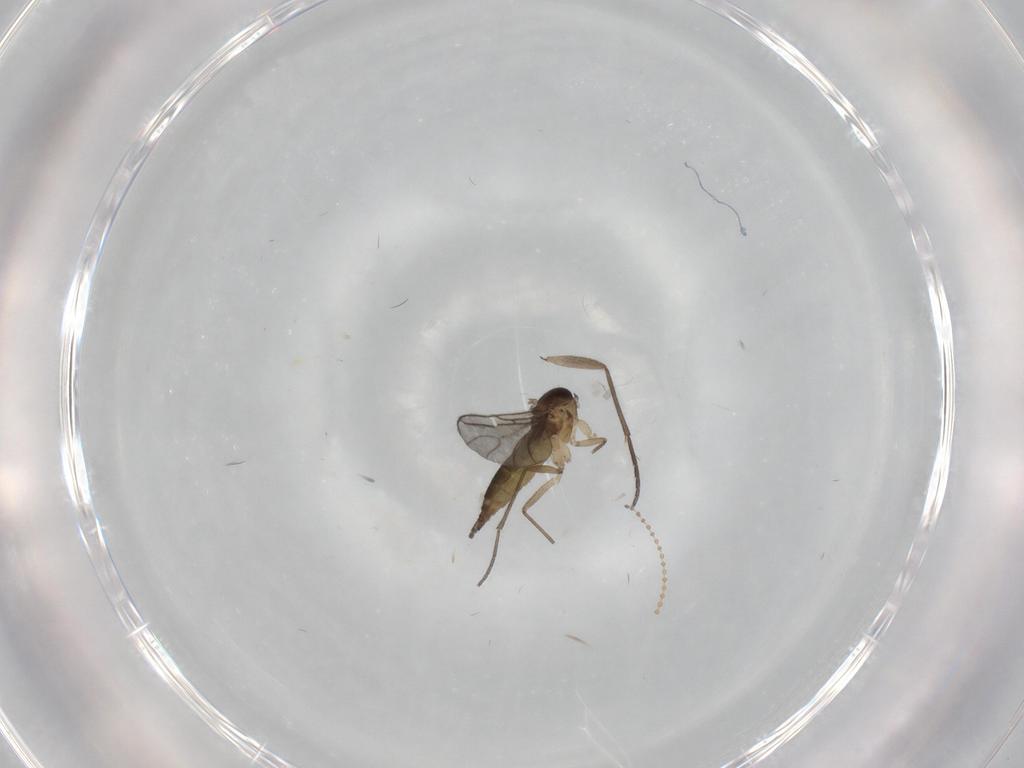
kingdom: Animalia
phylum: Arthropoda
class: Insecta
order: Diptera
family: Sciaridae
